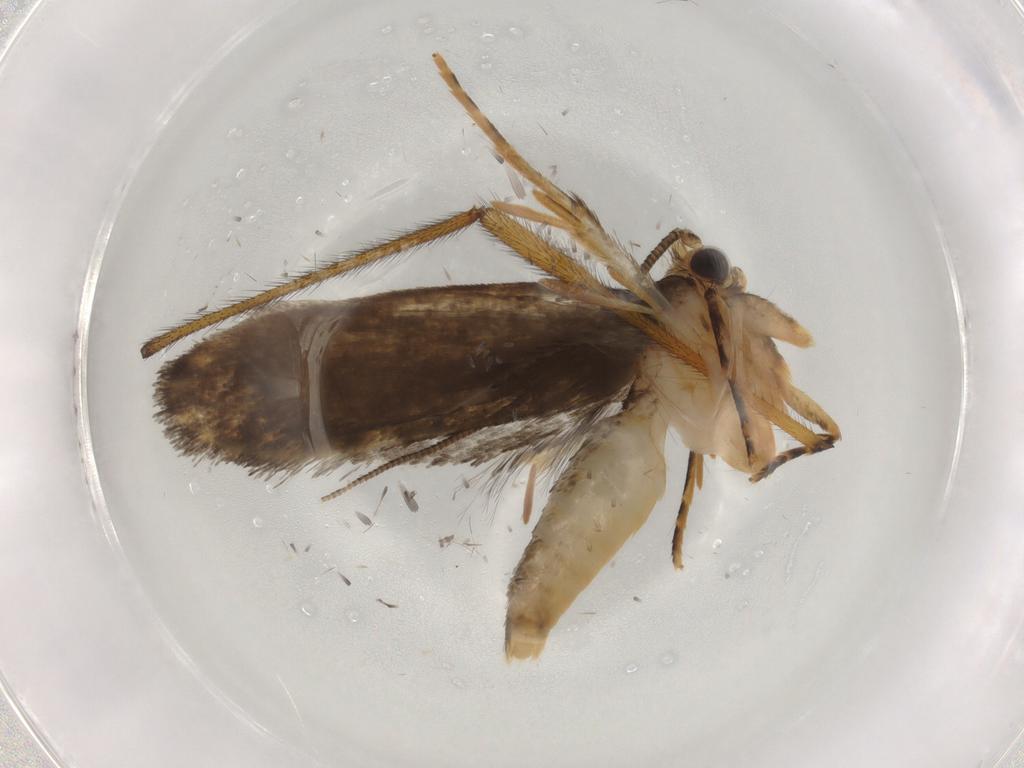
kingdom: Animalia
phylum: Arthropoda
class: Insecta
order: Lepidoptera
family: Tineidae
